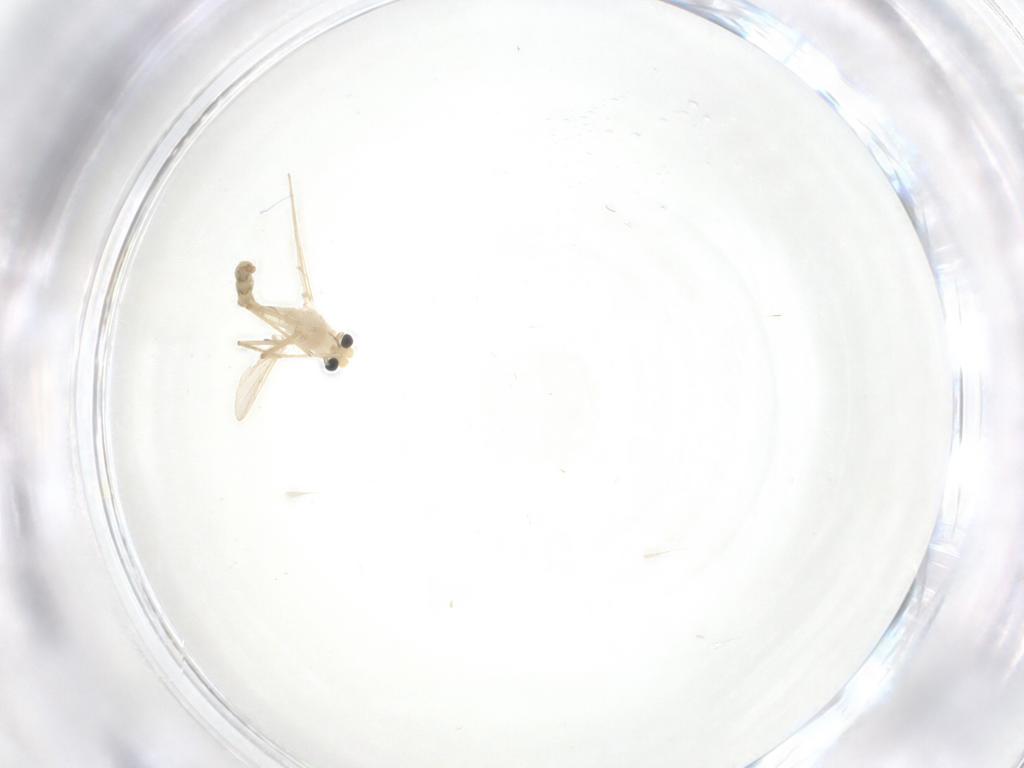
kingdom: Animalia
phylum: Arthropoda
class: Insecta
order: Diptera
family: Chironomidae
